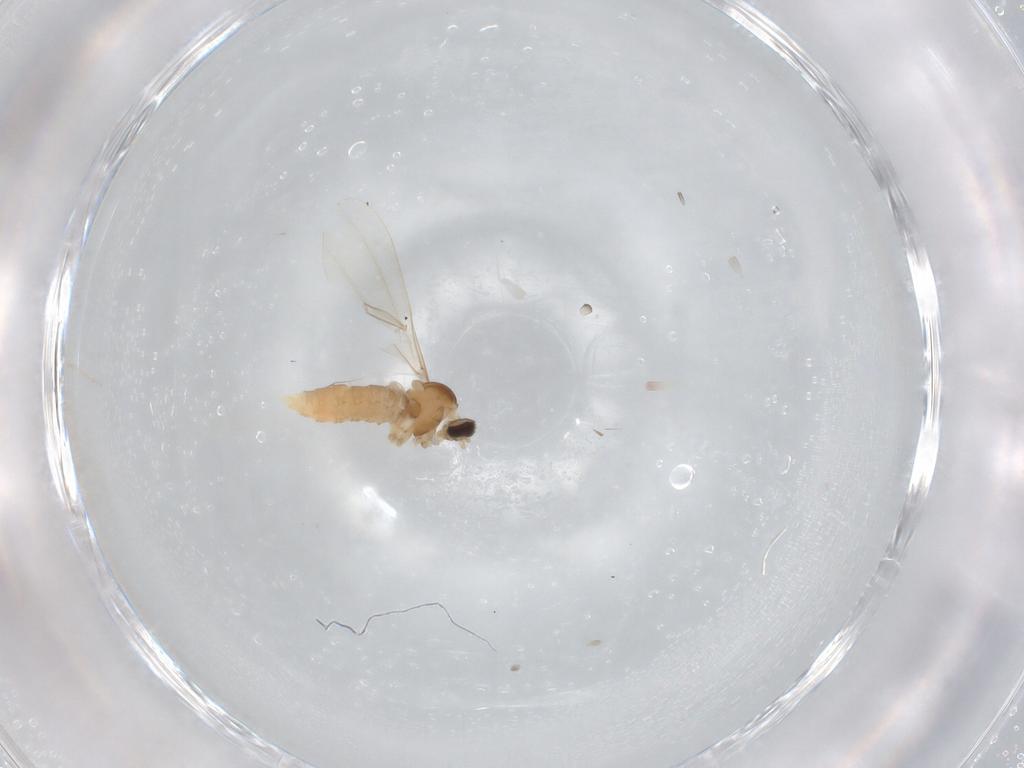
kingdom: Animalia
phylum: Arthropoda
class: Insecta
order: Diptera
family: Cecidomyiidae
